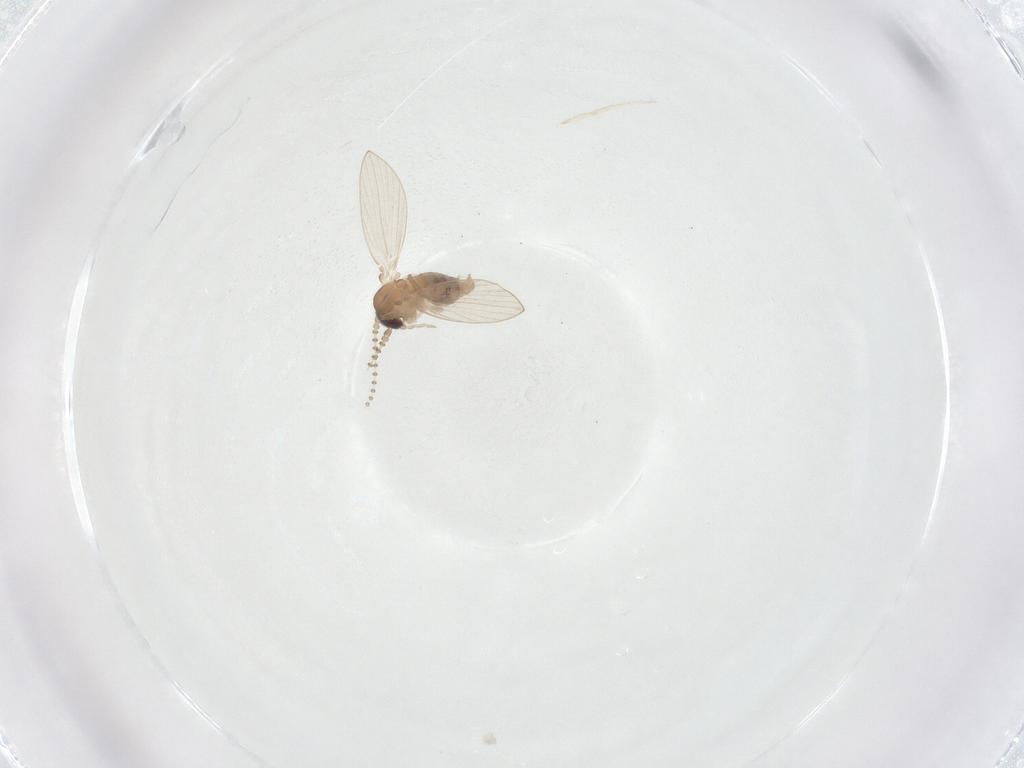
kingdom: Animalia
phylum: Arthropoda
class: Insecta
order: Diptera
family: Psychodidae
